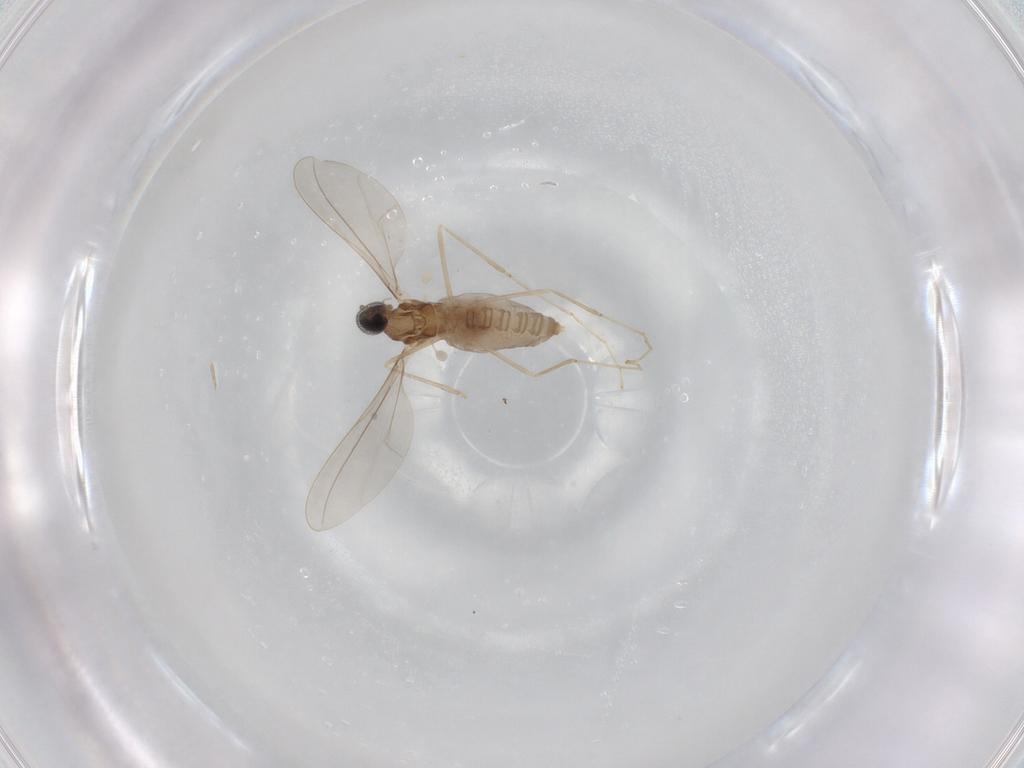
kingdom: Animalia
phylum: Arthropoda
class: Insecta
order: Diptera
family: Cecidomyiidae
